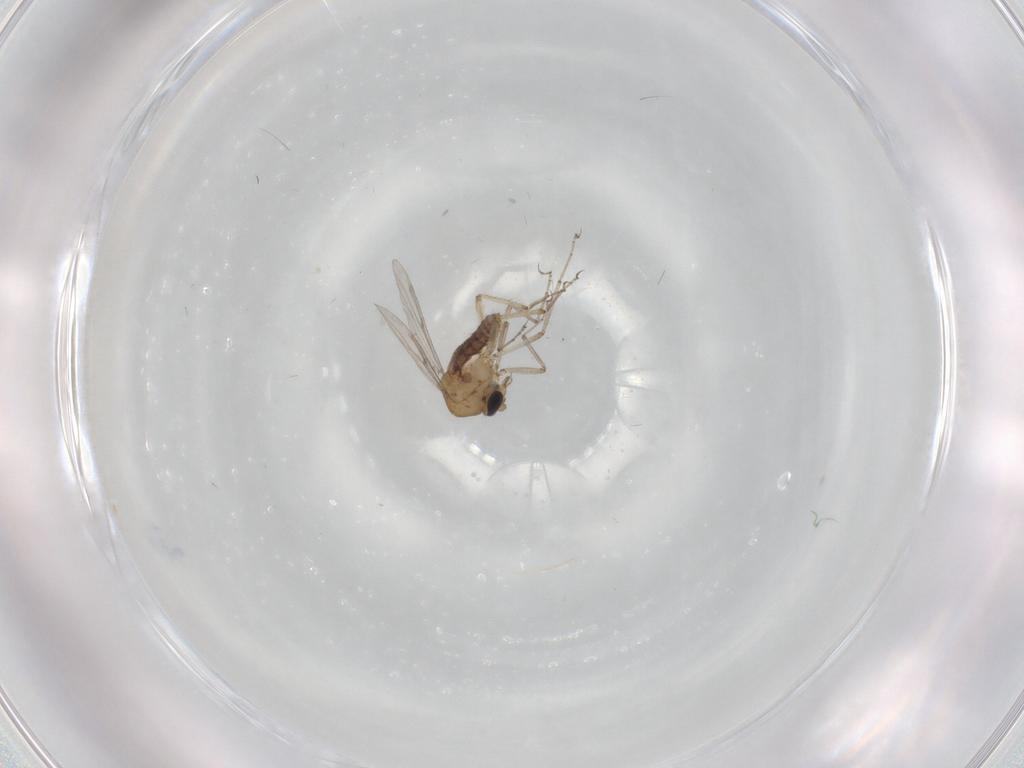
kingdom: Animalia
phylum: Arthropoda
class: Insecta
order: Diptera
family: Ceratopogonidae
